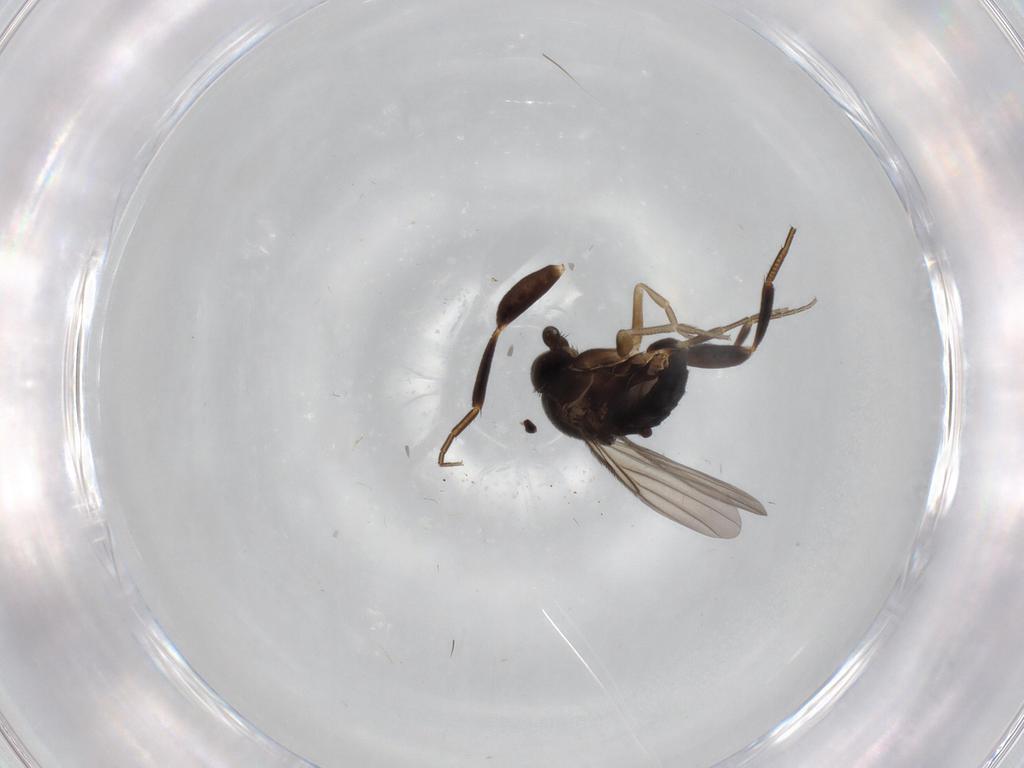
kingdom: Animalia
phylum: Arthropoda
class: Insecta
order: Diptera
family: Phoridae
